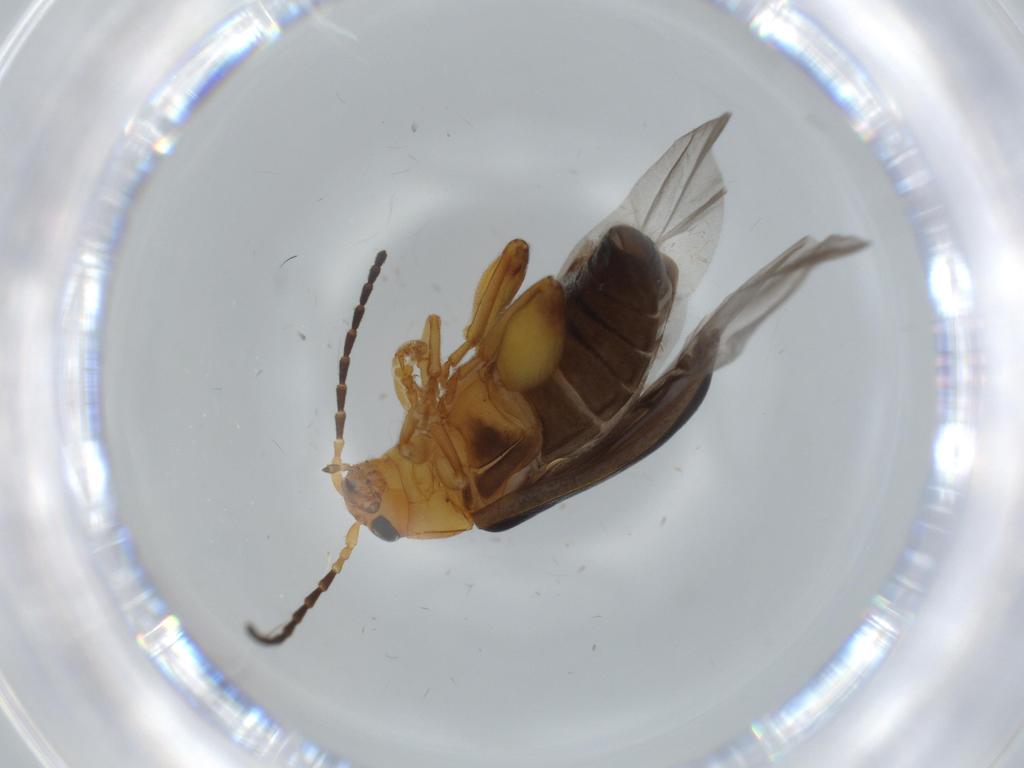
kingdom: Animalia
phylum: Arthropoda
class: Insecta
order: Coleoptera
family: Chrysomelidae
